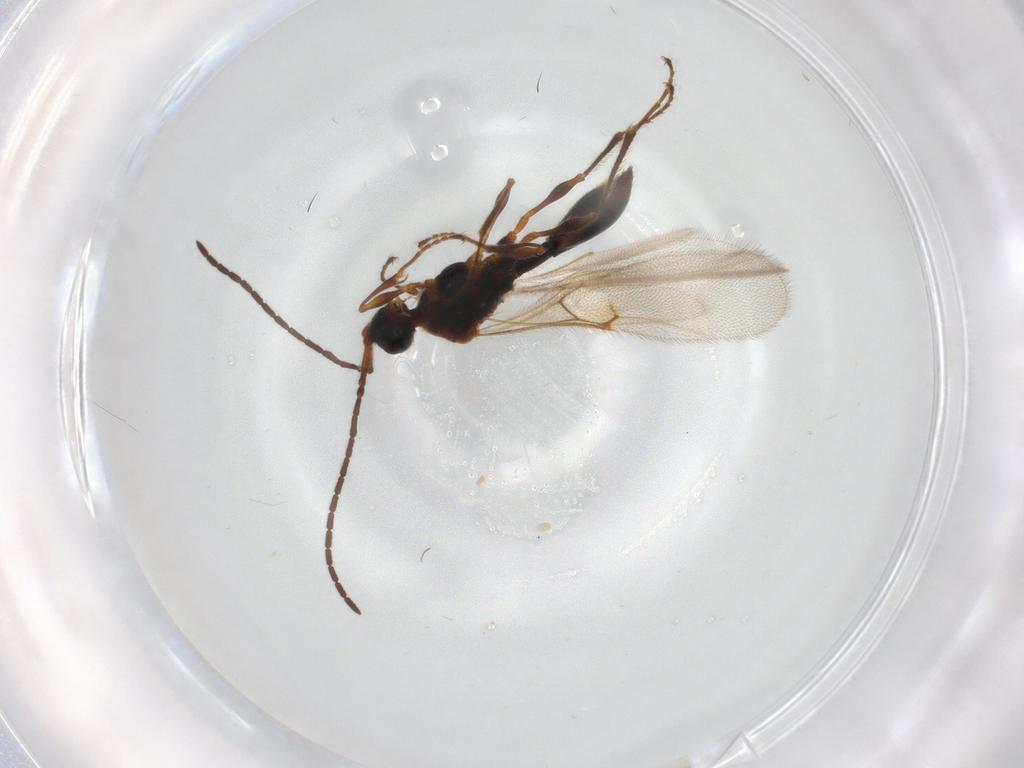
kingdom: Animalia
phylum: Arthropoda
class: Insecta
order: Hymenoptera
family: Diapriidae
